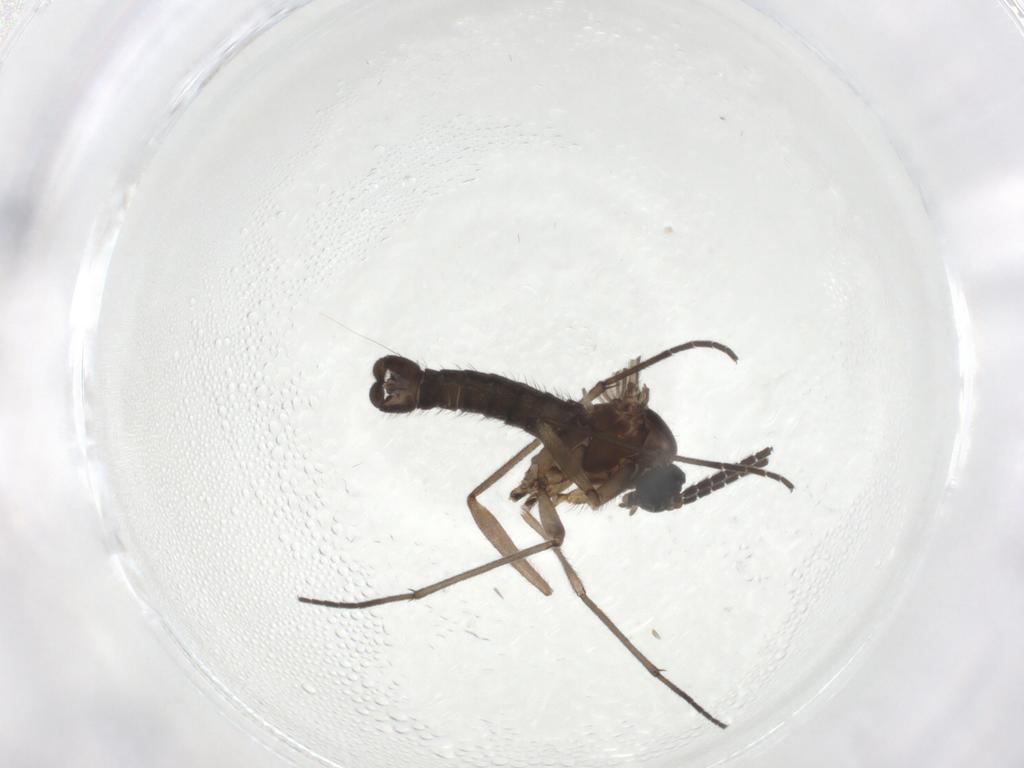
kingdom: Animalia
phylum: Arthropoda
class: Insecta
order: Diptera
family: Sciaridae
